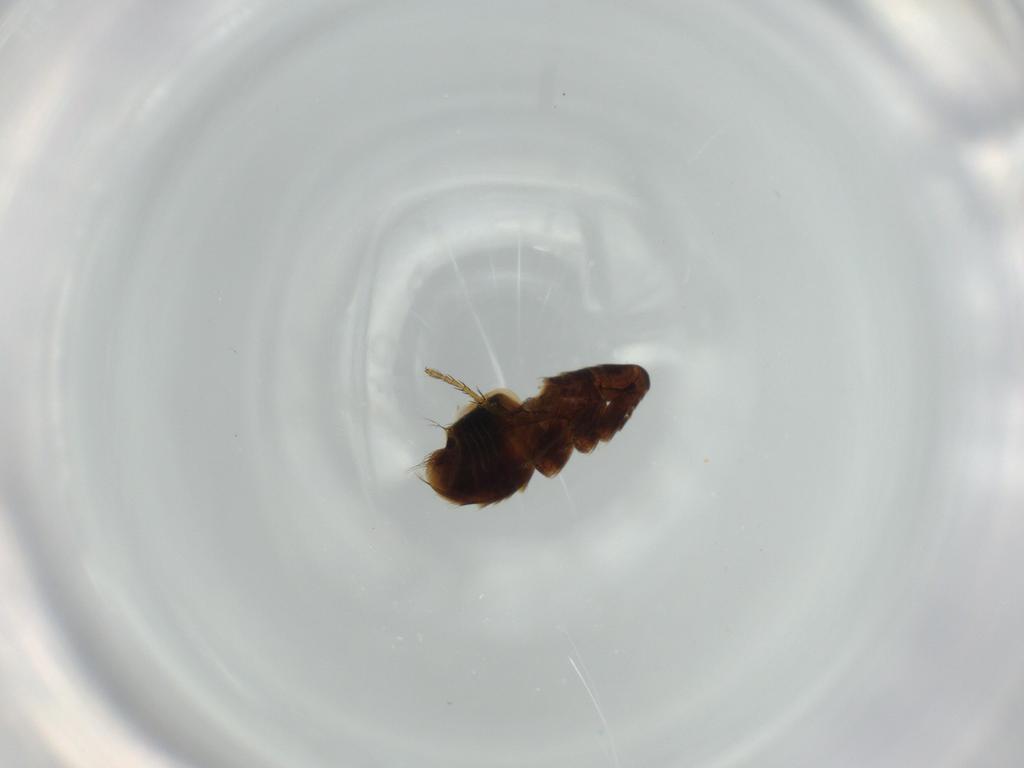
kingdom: Animalia
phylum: Arthropoda
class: Insecta
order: Siphonaptera
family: Ceratophyllidae
